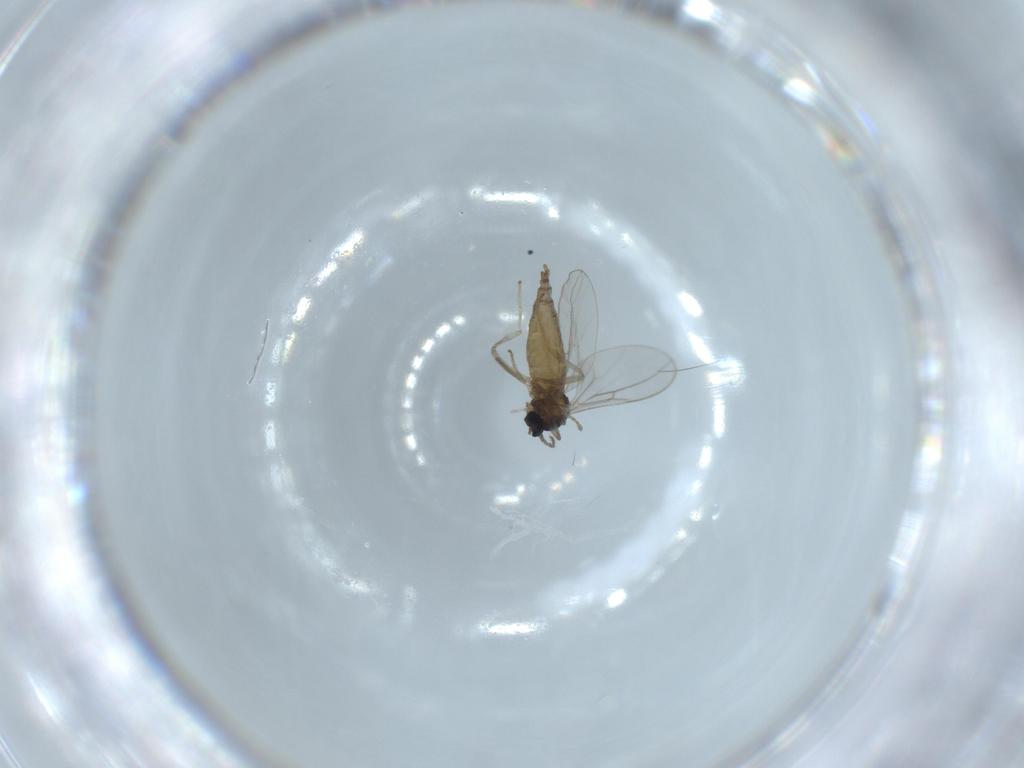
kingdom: Animalia
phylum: Arthropoda
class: Insecta
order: Diptera
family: Cecidomyiidae
